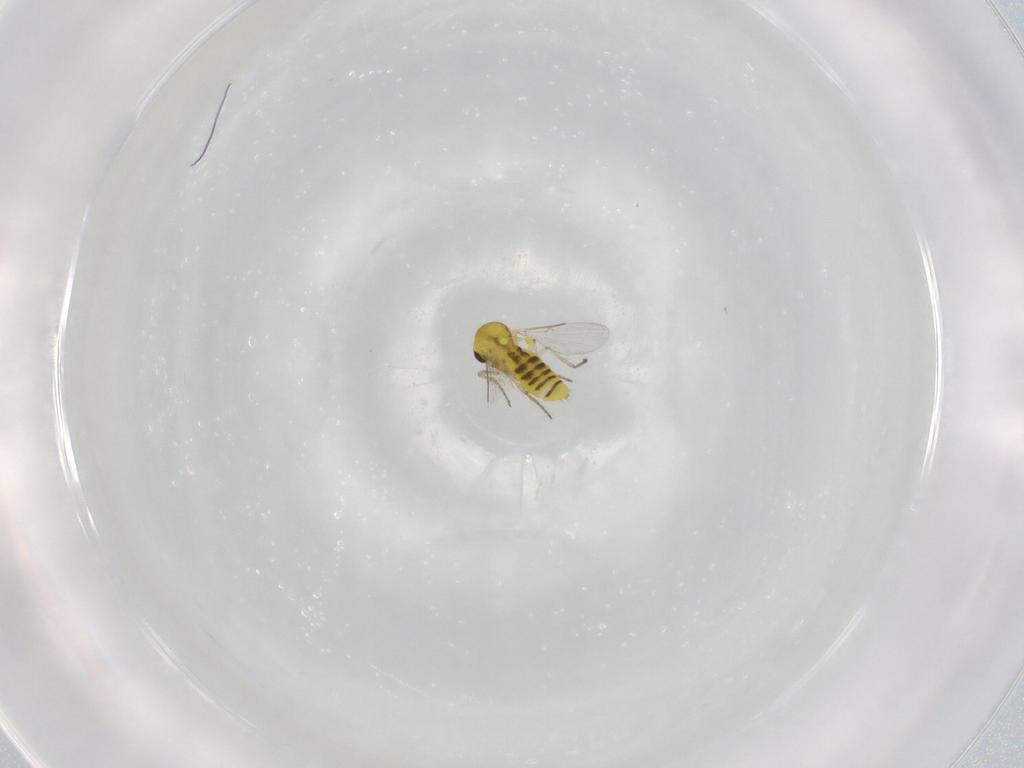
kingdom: Animalia
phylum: Arthropoda
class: Insecta
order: Diptera
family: Ceratopogonidae
